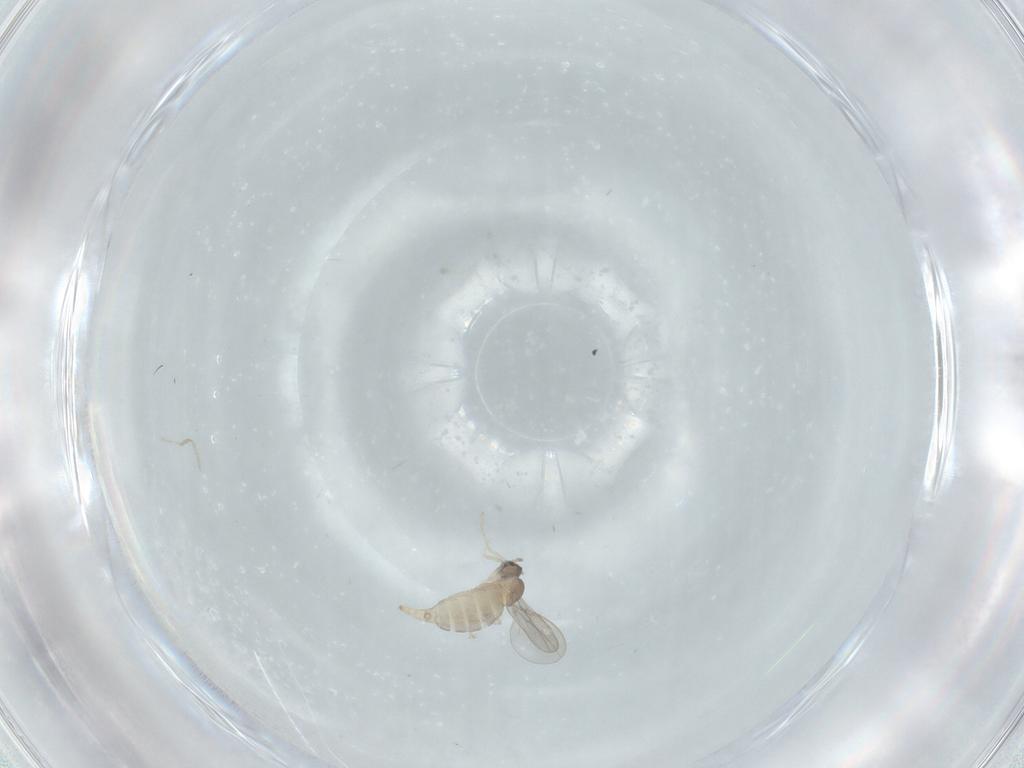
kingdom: Animalia
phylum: Arthropoda
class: Insecta
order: Diptera
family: Cecidomyiidae
